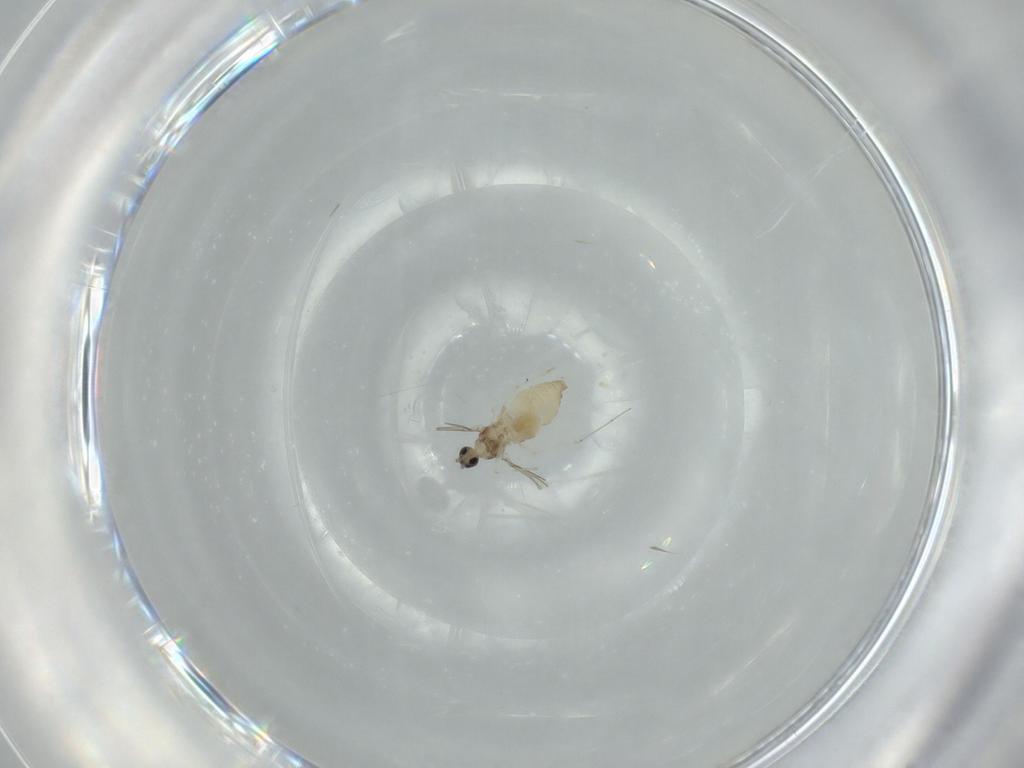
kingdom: Animalia
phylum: Arthropoda
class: Insecta
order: Diptera
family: Cecidomyiidae
